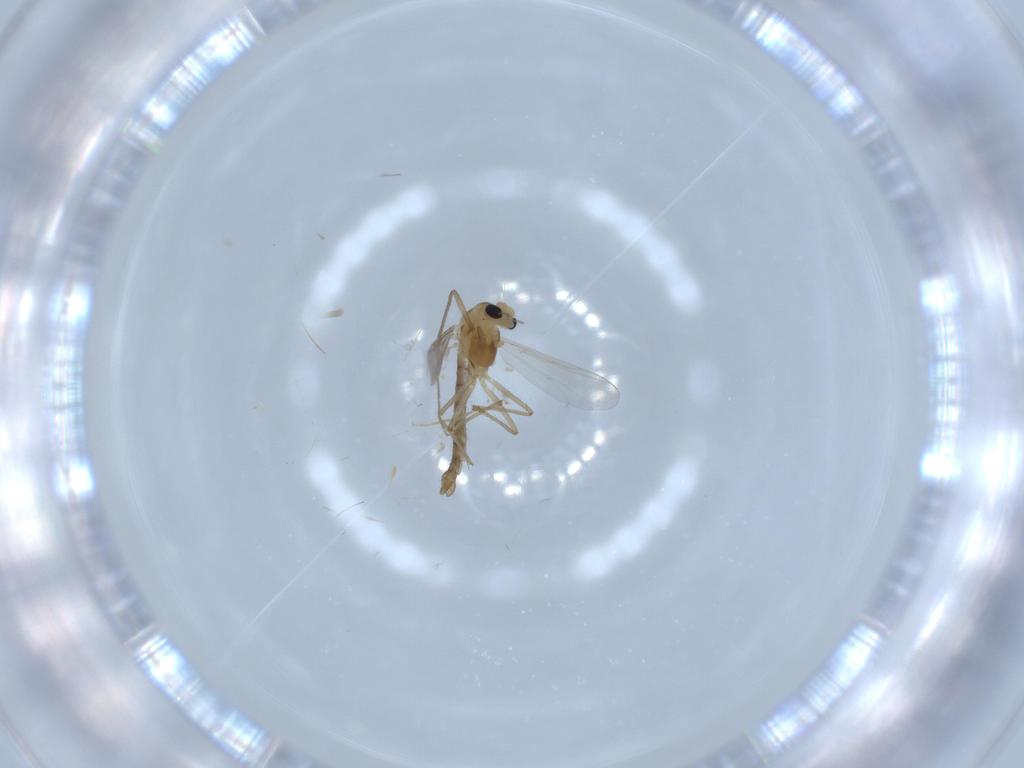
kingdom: Animalia
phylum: Arthropoda
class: Insecta
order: Diptera
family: Chironomidae
